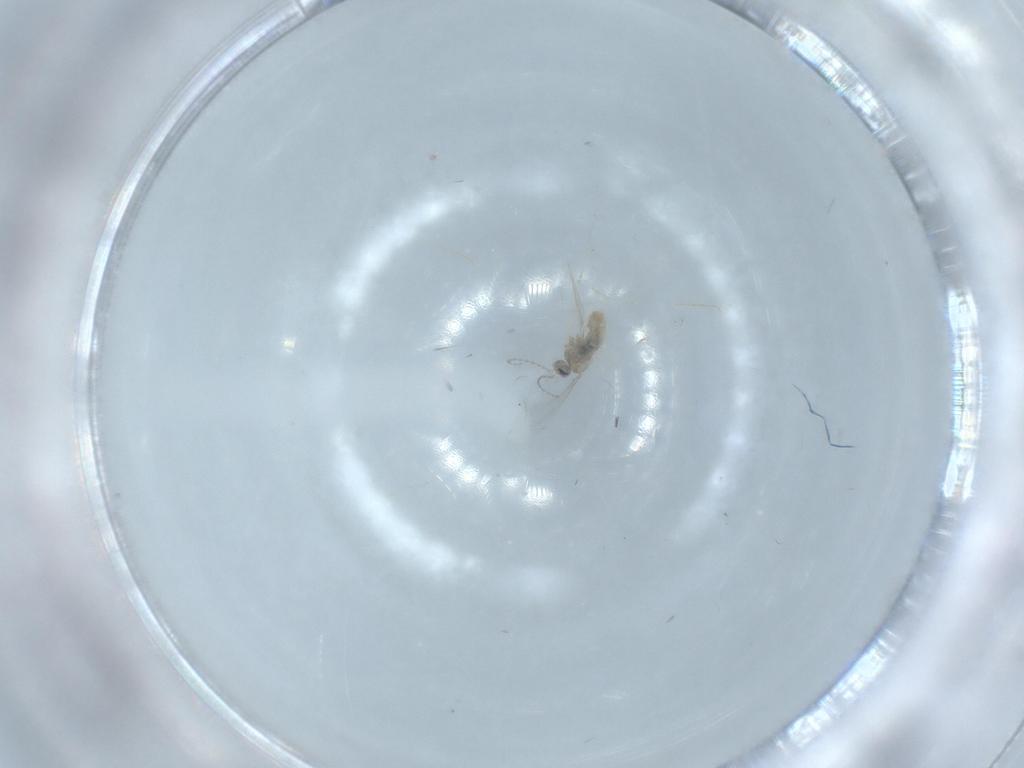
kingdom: Animalia
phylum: Arthropoda
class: Insecta
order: Diptera
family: Cecidomyiidae
